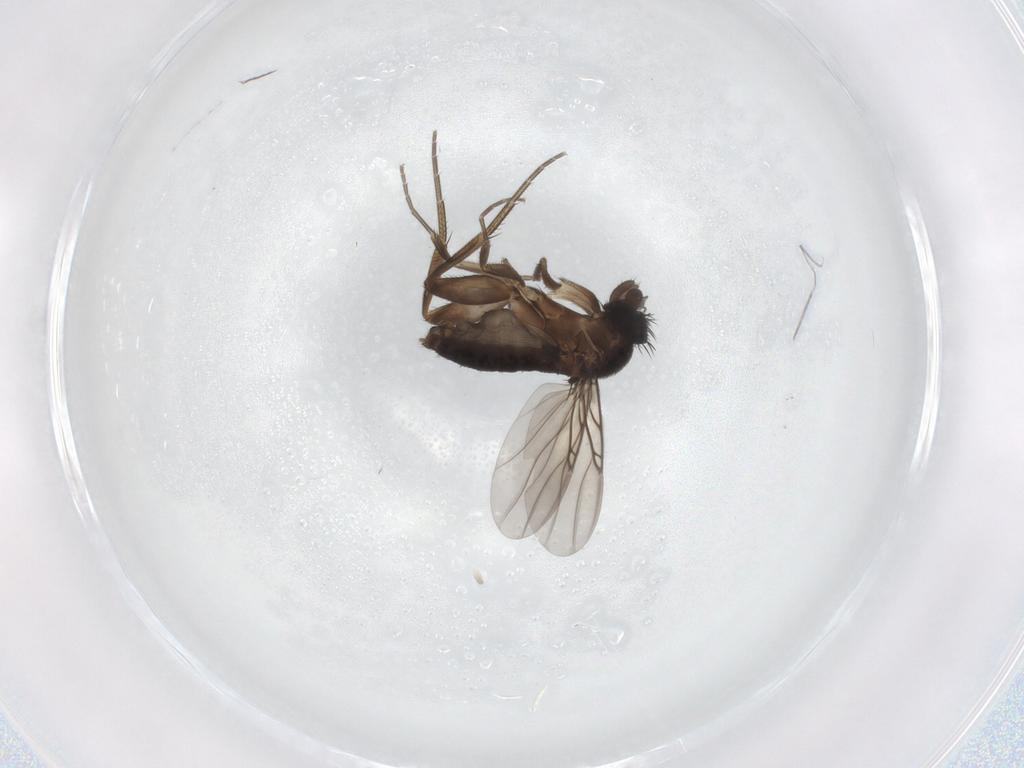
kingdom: Animalia
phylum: Arthropoda
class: Insecta
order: Diptera
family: Phoridae
